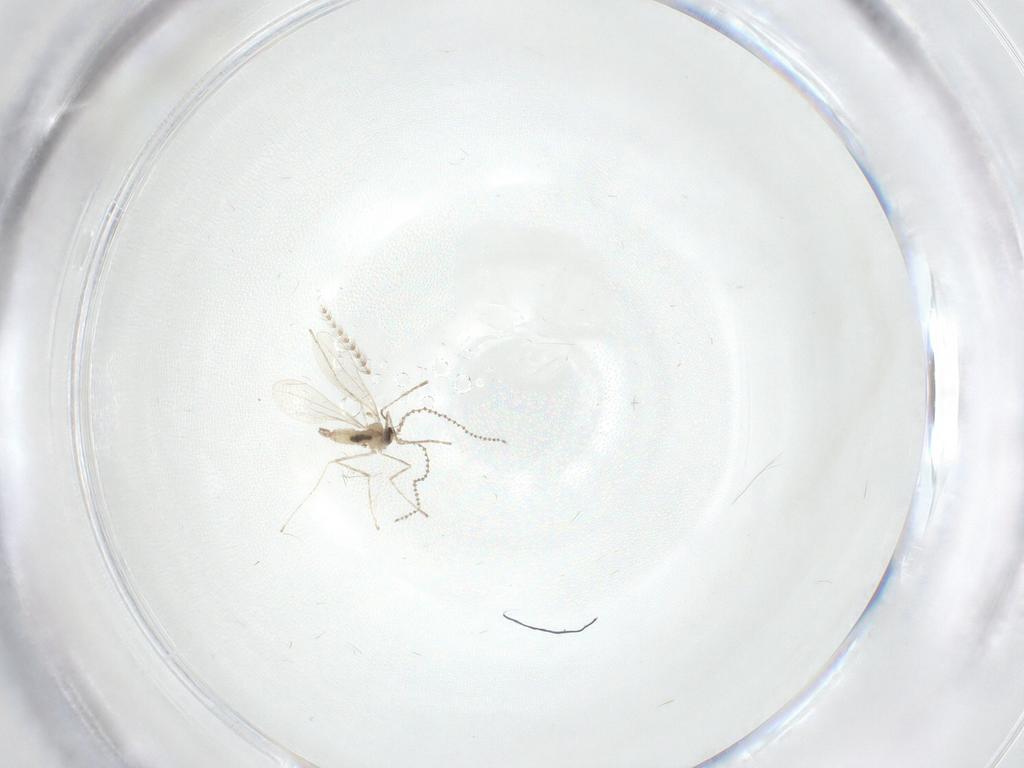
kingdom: Animalia
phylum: Arthropoda
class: Insecta
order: Diptera
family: Cecidomyiidae
